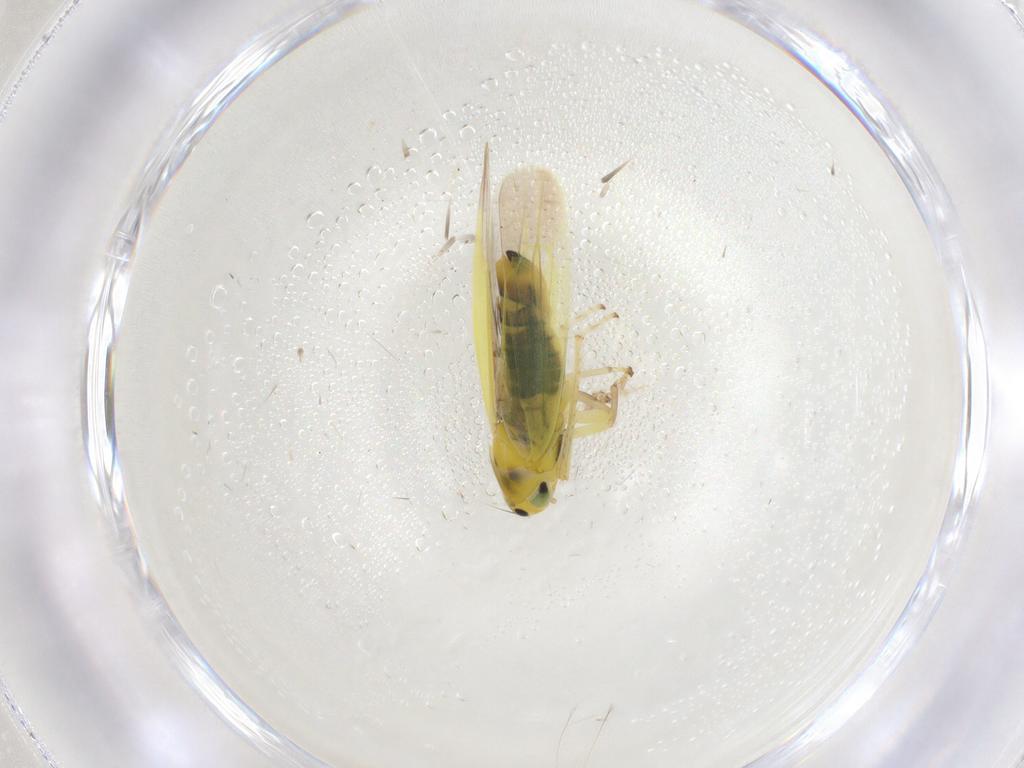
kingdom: Animalia
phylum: Arthropoda
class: Insecta
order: Hemiptera
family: Cicadellidae
